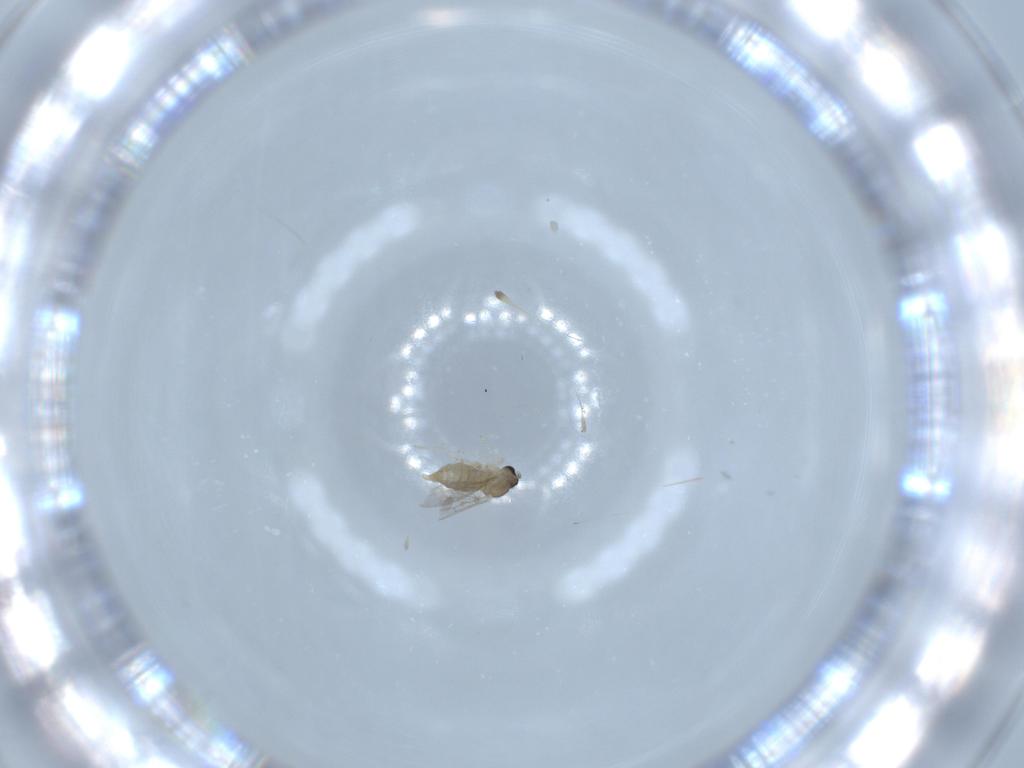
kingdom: Animalia
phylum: Arthropoda
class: Insecta
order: Diptera
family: Cecidomyiidae
